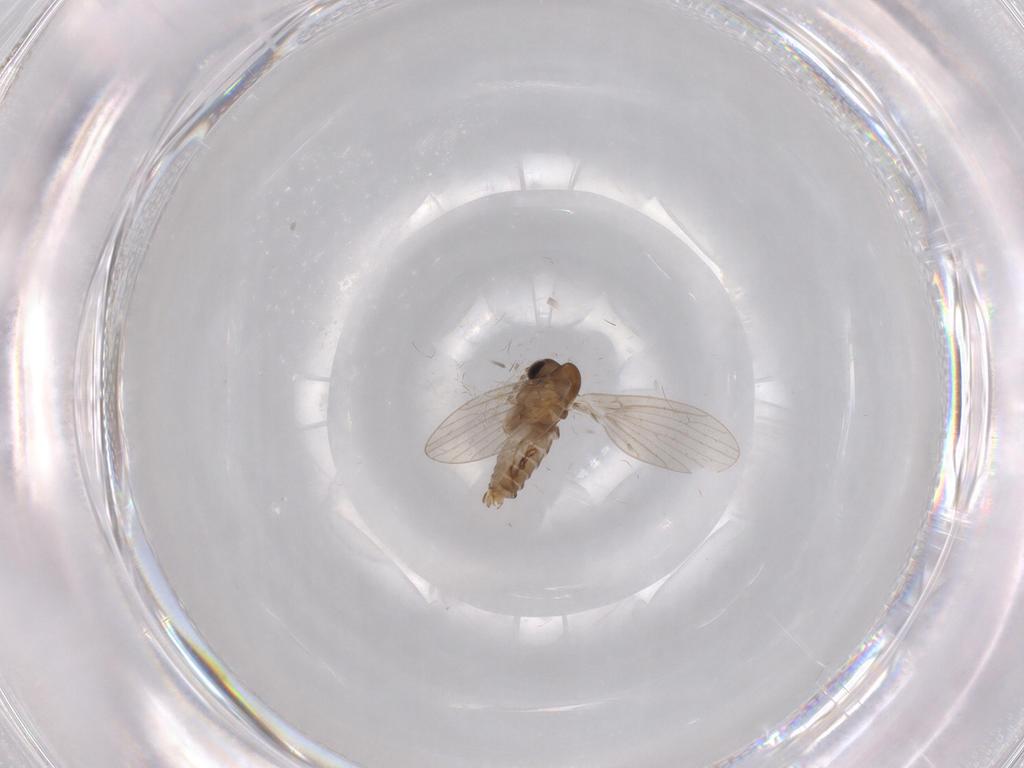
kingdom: Animalia
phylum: Arthropoda
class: Insecta
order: Diptera
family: Psychodidae
